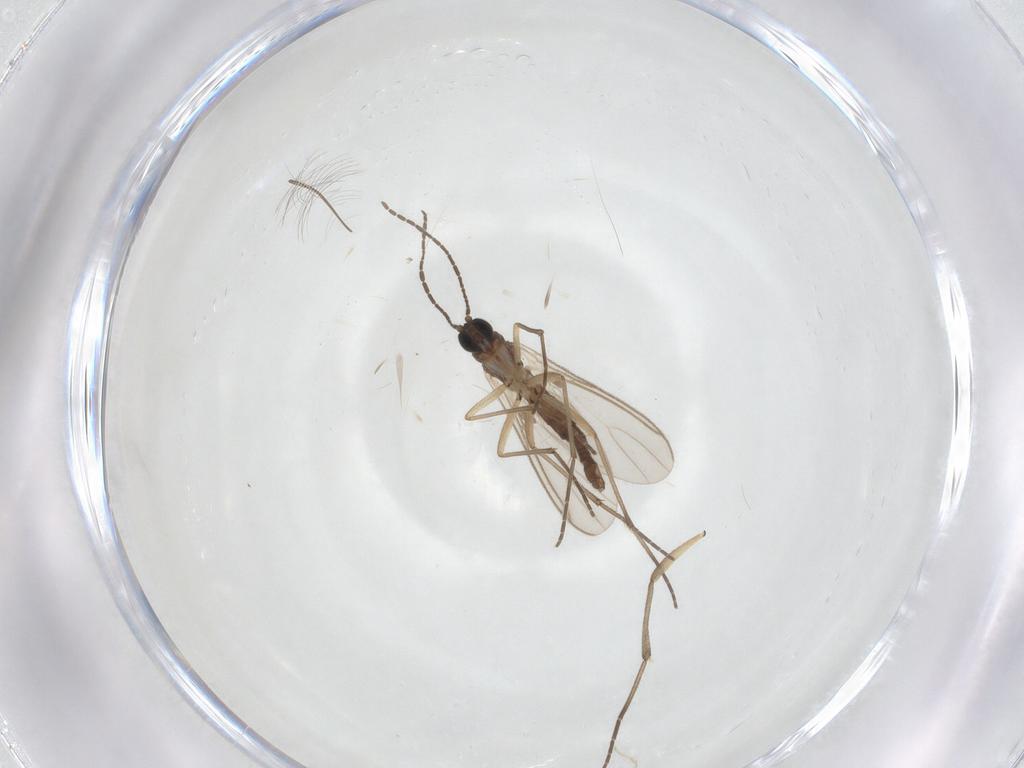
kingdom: Animalia
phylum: Arthropoda
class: Insecta
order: Diptera
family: Sciaridae
